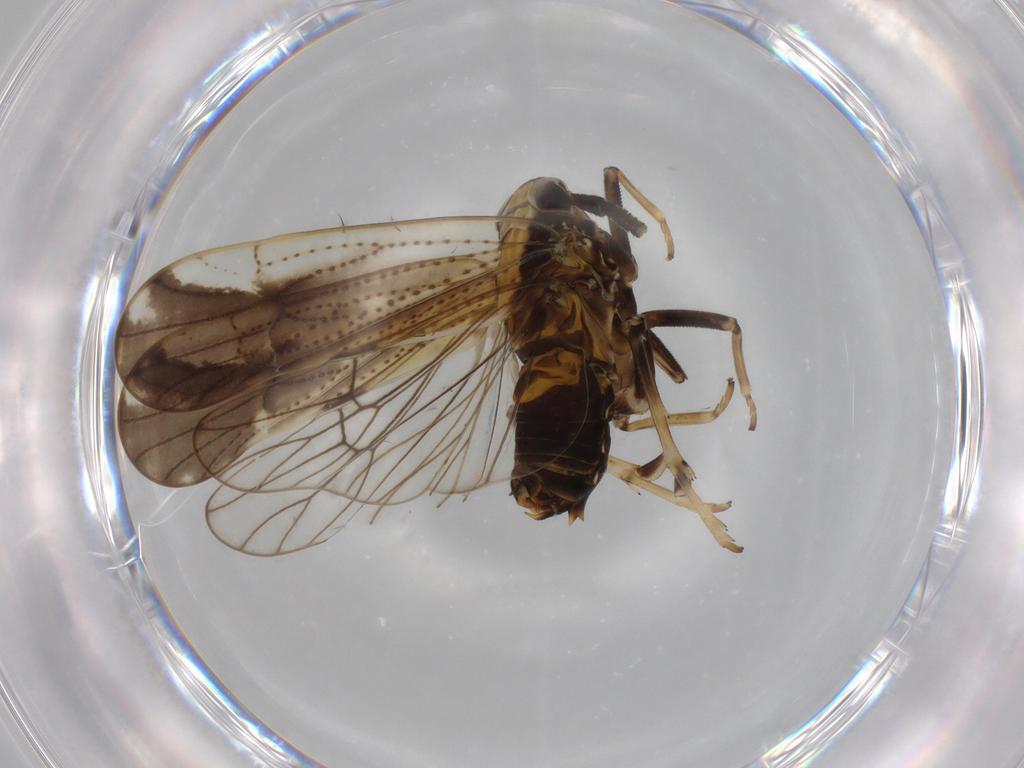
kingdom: Animalia
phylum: Arthropoda
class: Insecta
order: Hemiptera
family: Delphacidae
